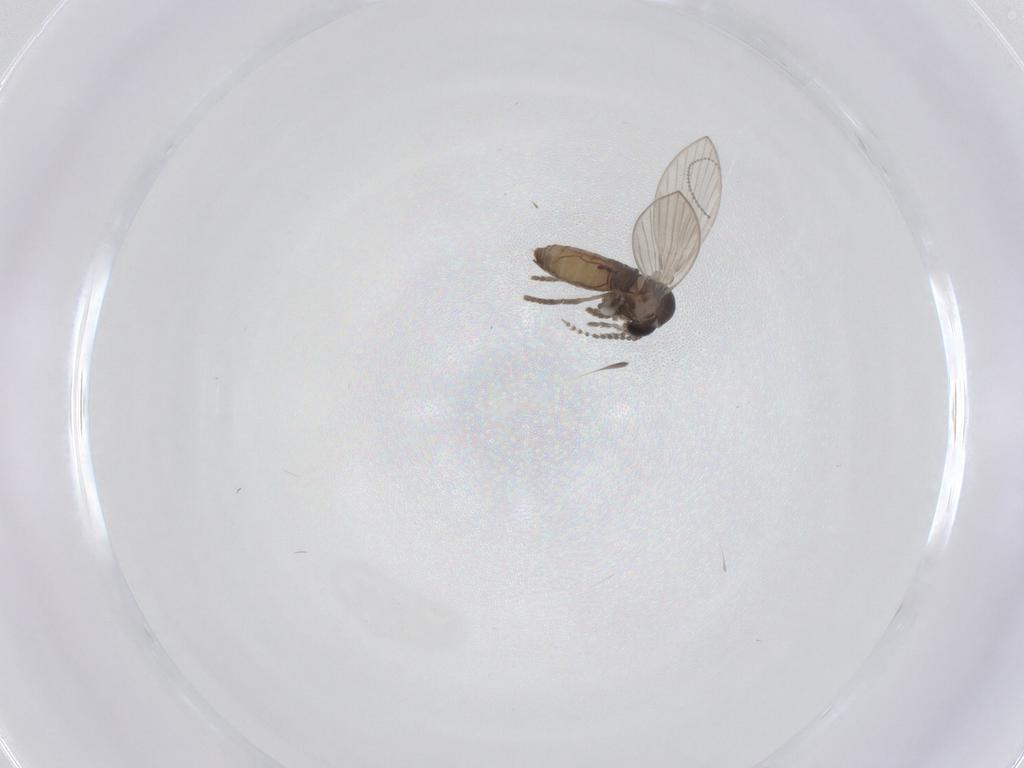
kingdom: Animalia
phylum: Arthropoda
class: Insecta
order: Diptera
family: Psychodidae
